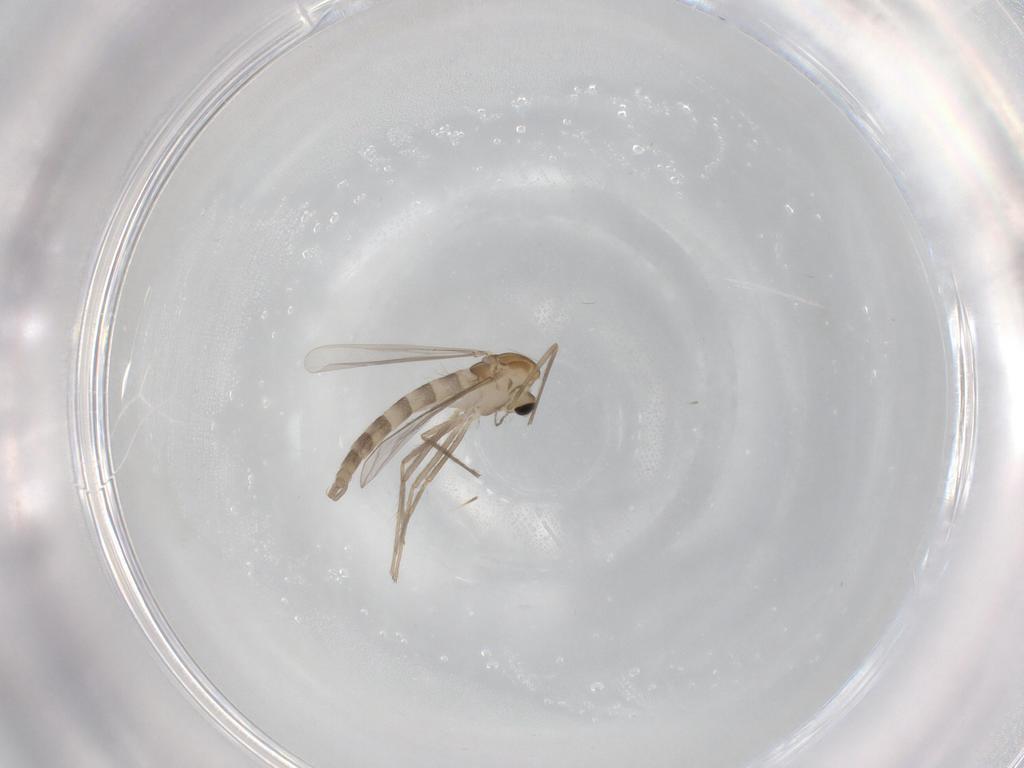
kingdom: Animalia
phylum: Arthropoda
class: Insecta
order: Diptera
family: Chironomidae
